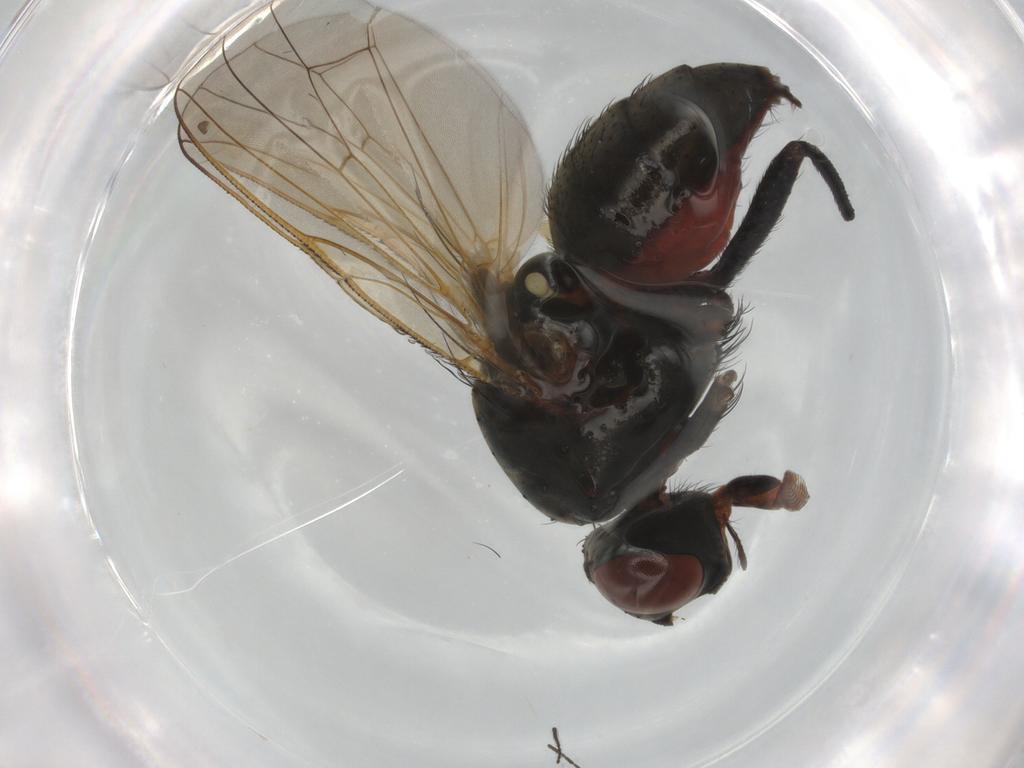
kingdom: Animalia
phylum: Arthropoda
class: Insecta
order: Diptera
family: Anthomyiidae
